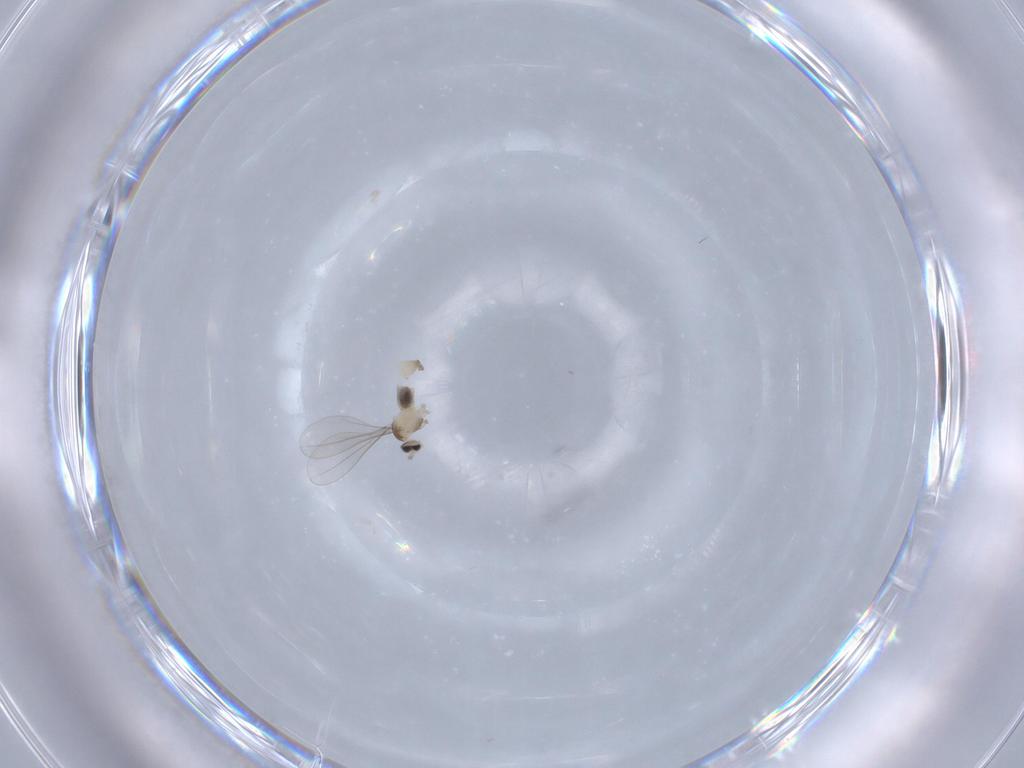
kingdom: Animalia
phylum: Arthropoda
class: Insecta
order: Diptera
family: Cecidomyiidae
